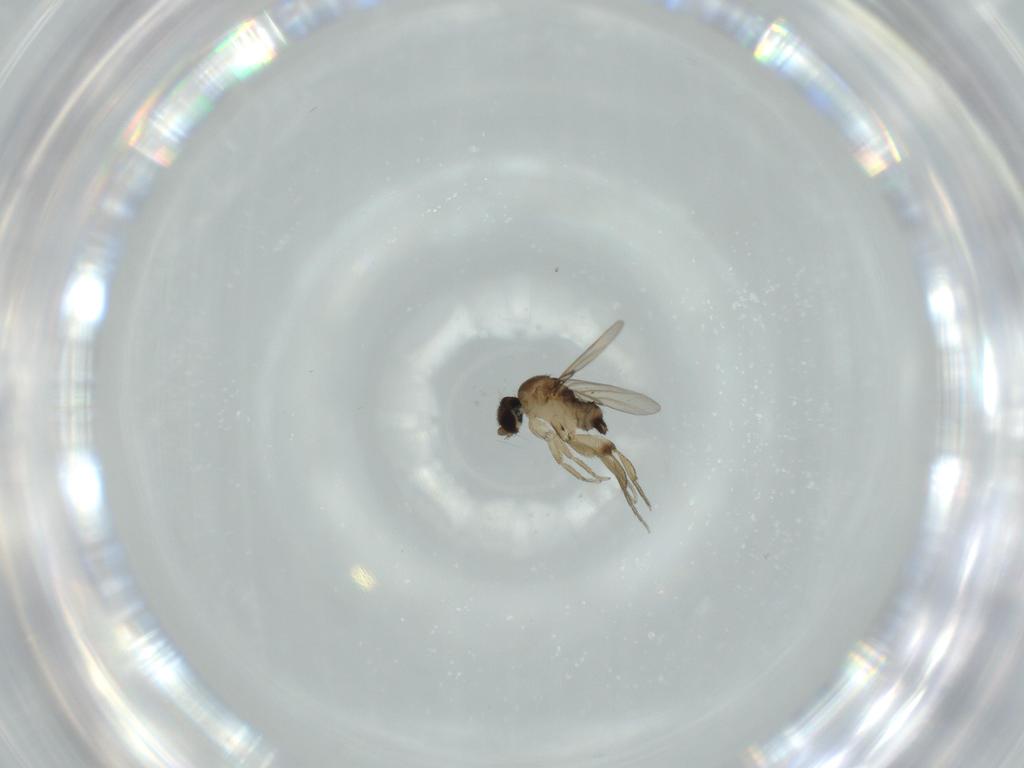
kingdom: Animalia
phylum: Arthropoda
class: Insecta
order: Diptera
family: Phoridae
